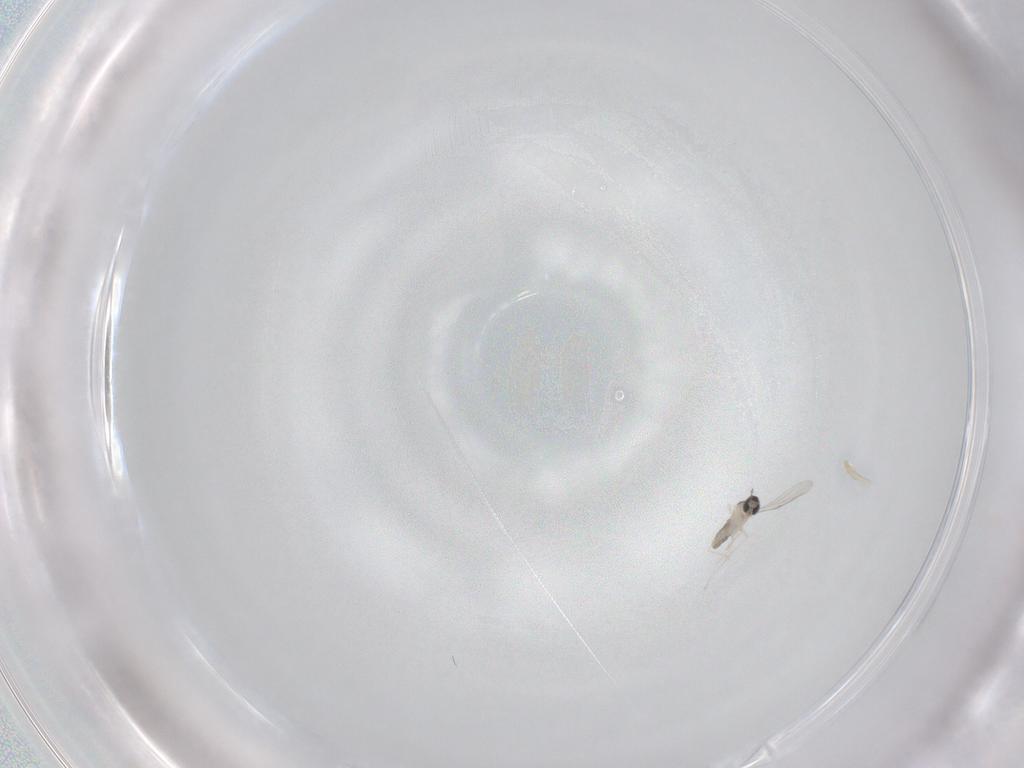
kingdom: Animalia
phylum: Arthropoda
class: Insecta
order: Diptera
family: Cecidomyiidae
